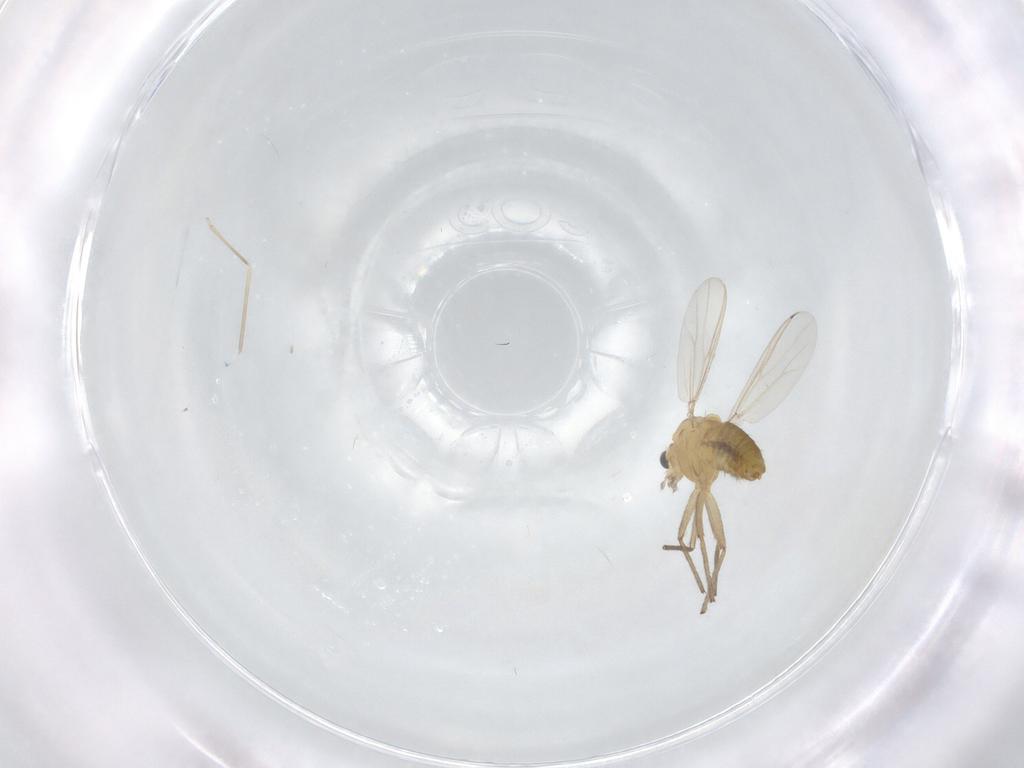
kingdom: Animalia
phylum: Arthropoda
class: Insecta
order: Diptera
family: Chironomidae
